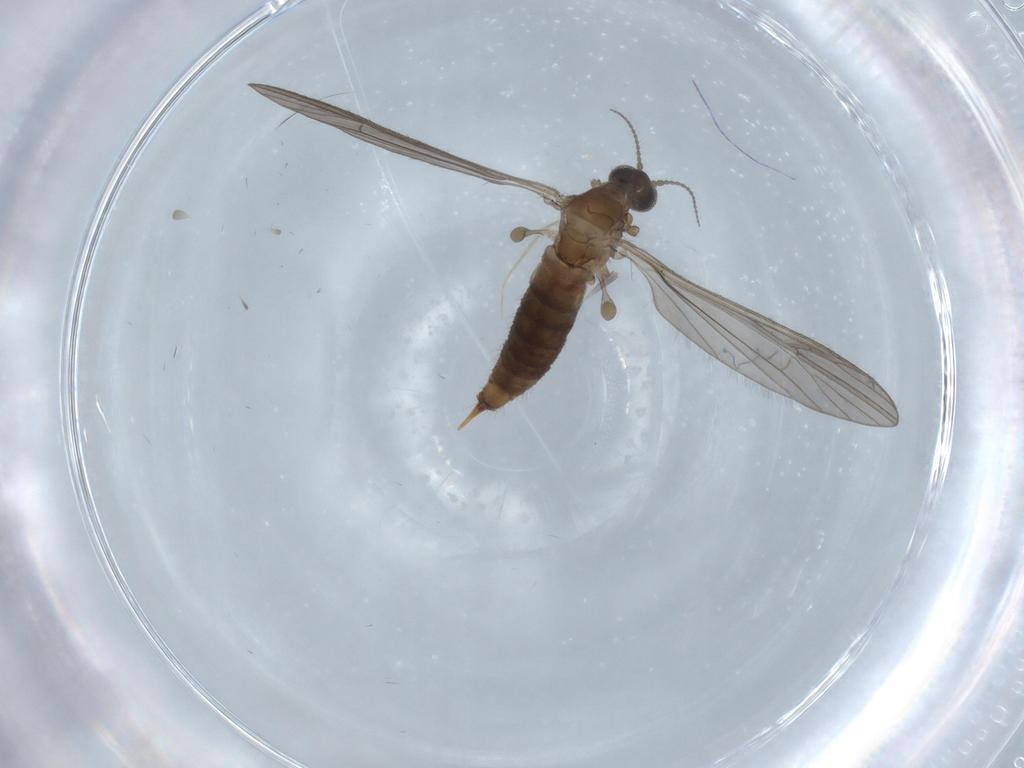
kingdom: Animalia
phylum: Arthropoda
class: Insecta
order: Diptera
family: Limoniidae
